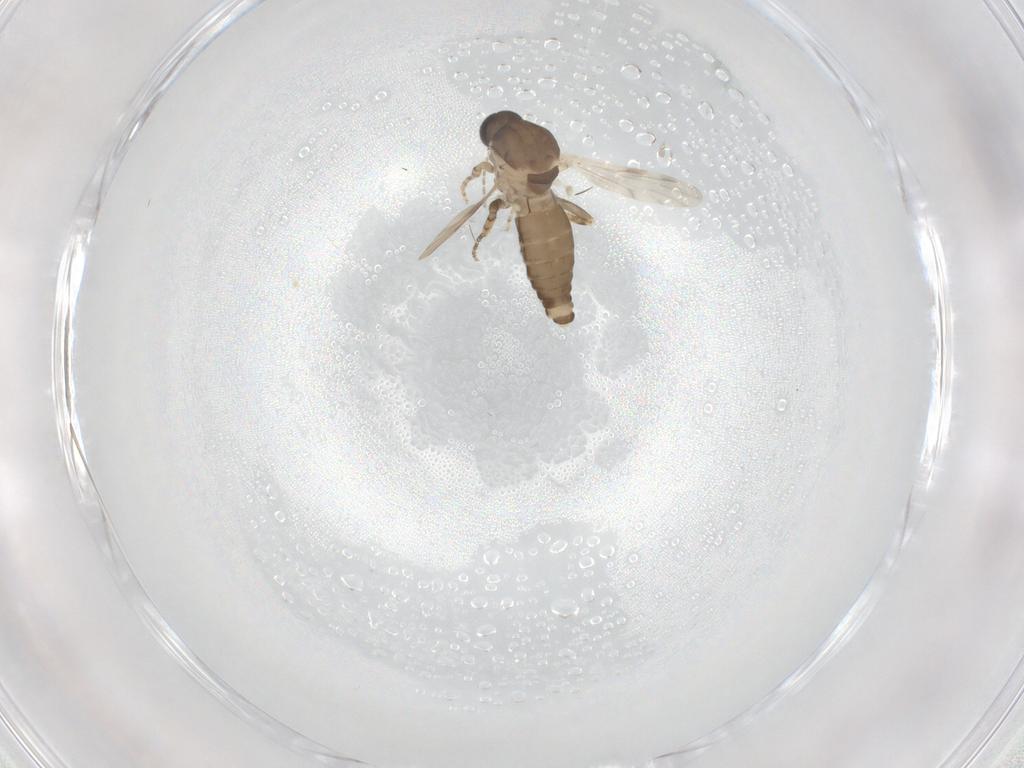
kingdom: Animalia
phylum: Arthropoda
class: Insecta
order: Diptera
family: Ceratopogonidae
